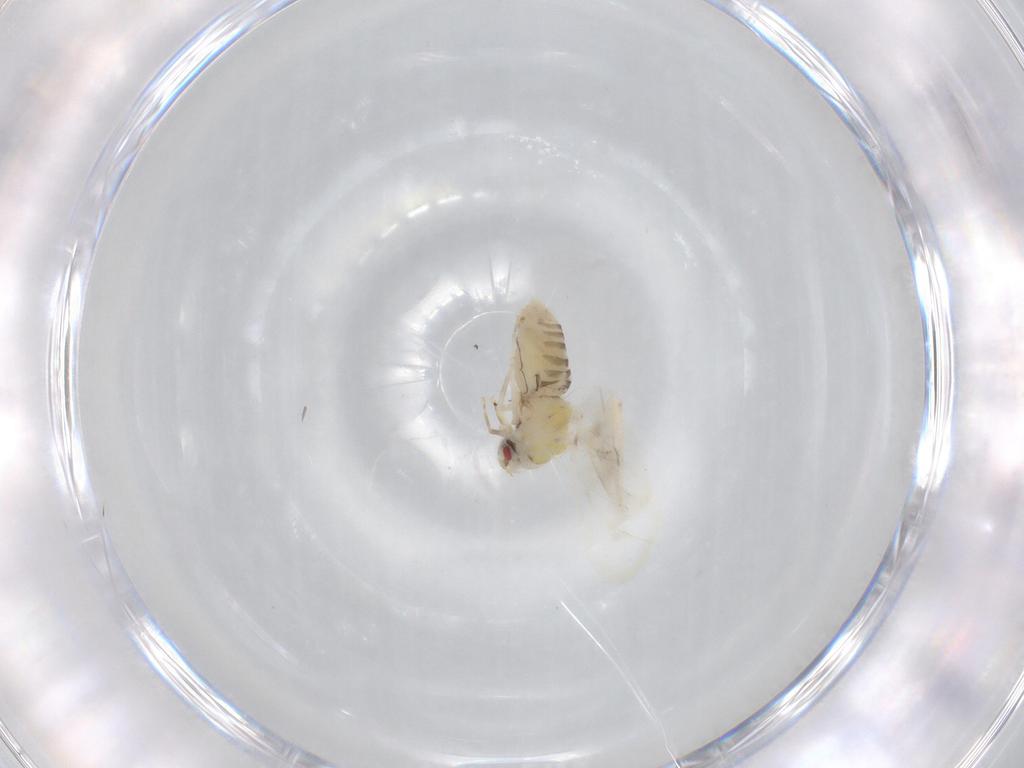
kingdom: Animalia
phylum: Arthropoda
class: Insecta
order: Hemiptera
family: Aleyrodidae
